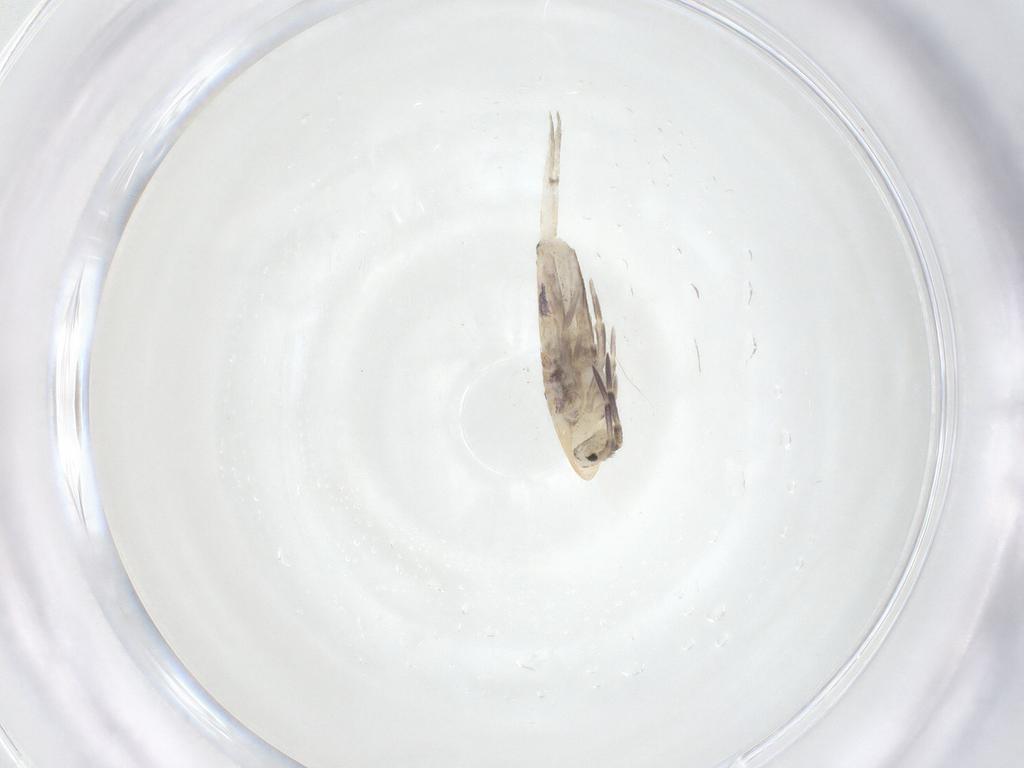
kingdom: Animalia
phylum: Arthropoda
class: Collembola
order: Entomobryomorpha
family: Entomobryidae
